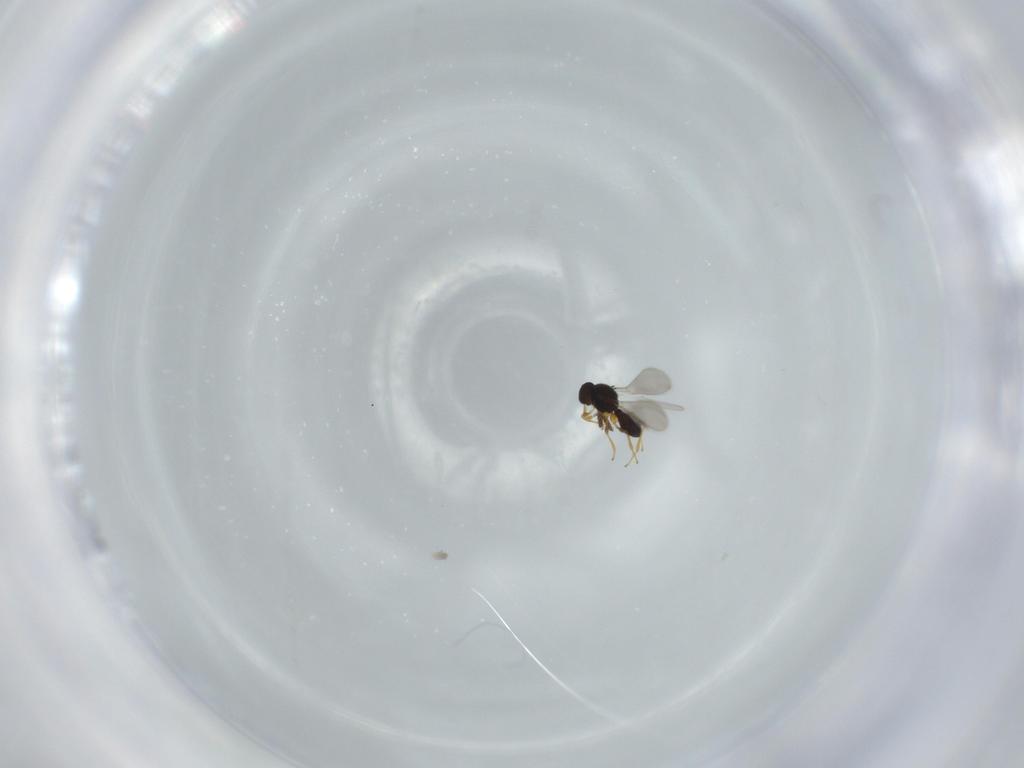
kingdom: Animalia
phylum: Arthropoda
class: Insecta
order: Hymenoptera
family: Platygastridae
